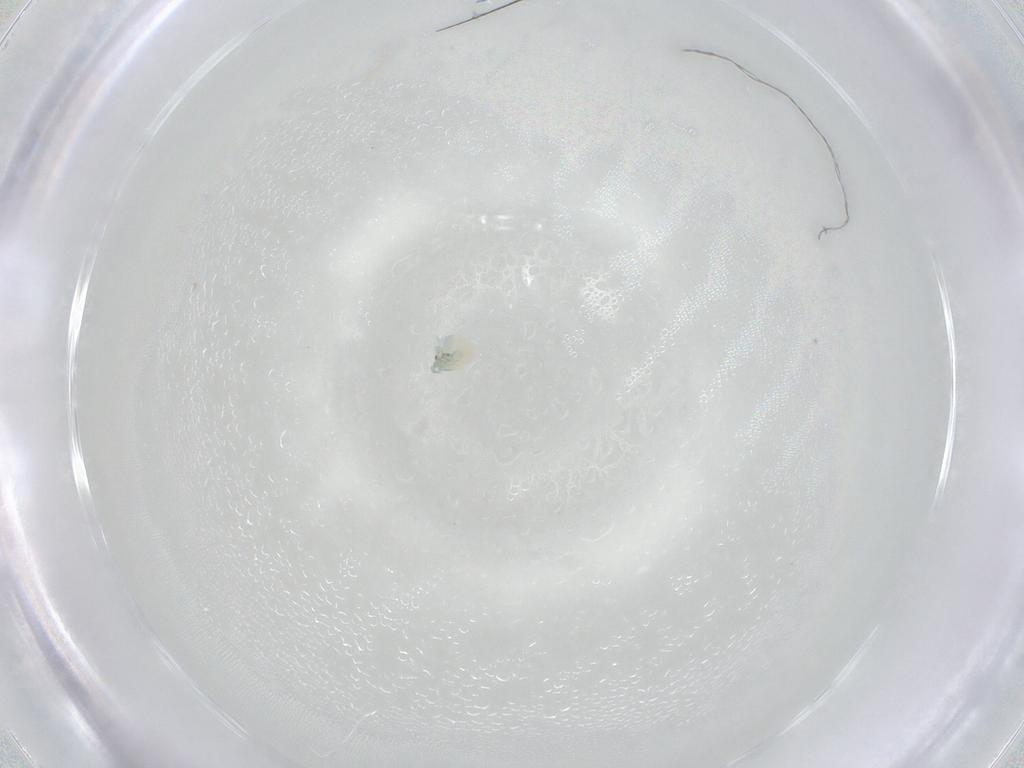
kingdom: Animalia
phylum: Arthropoda
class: Arachnida
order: Trombidiformes
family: Arrenuridae
